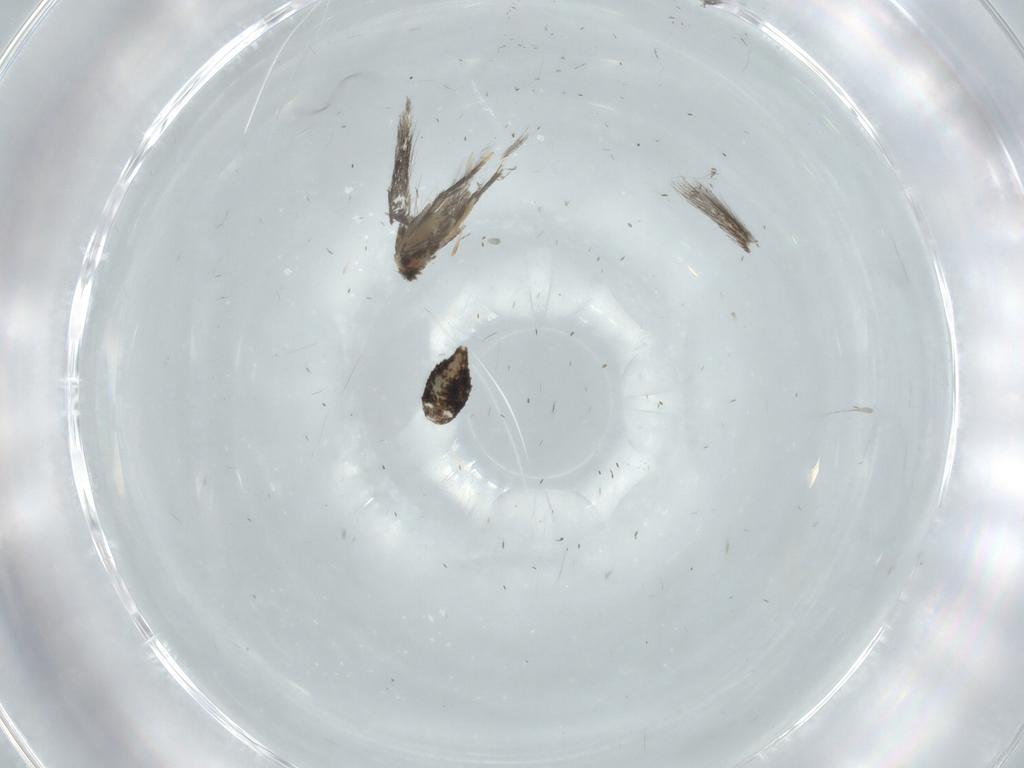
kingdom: Animalia
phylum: Arthropoda
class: Insecta
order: Lepidoptera
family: Nepticulidae
